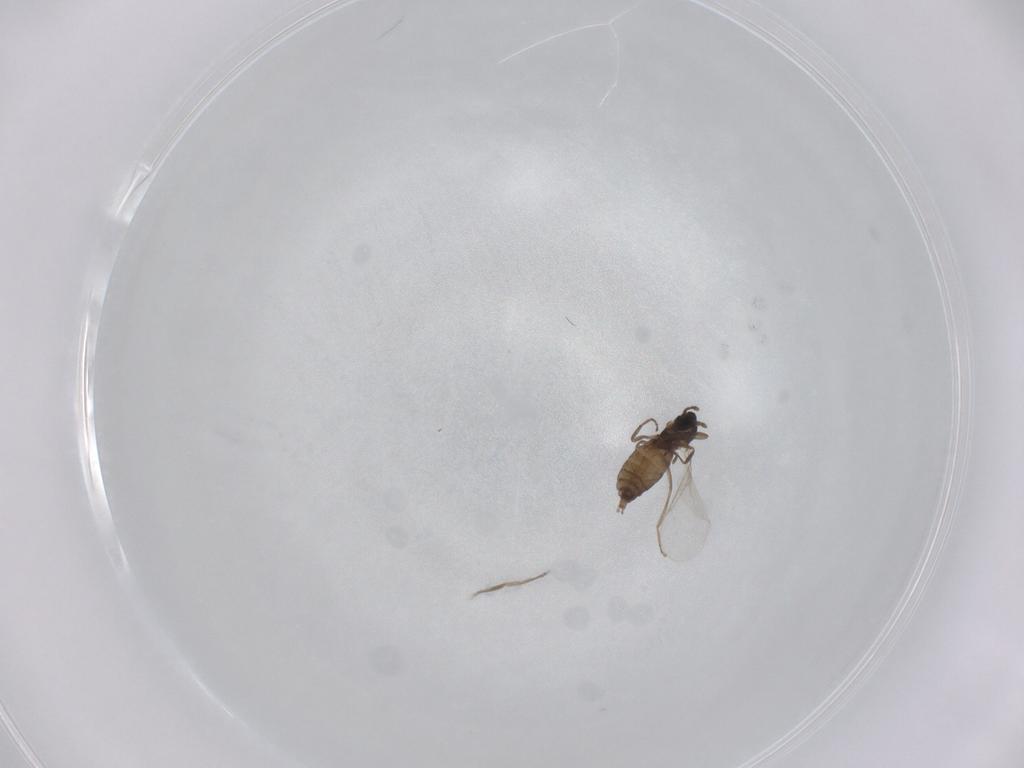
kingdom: Animalia
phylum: Arthropoda
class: Insecta
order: Diptera
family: Cecidomyiidae
